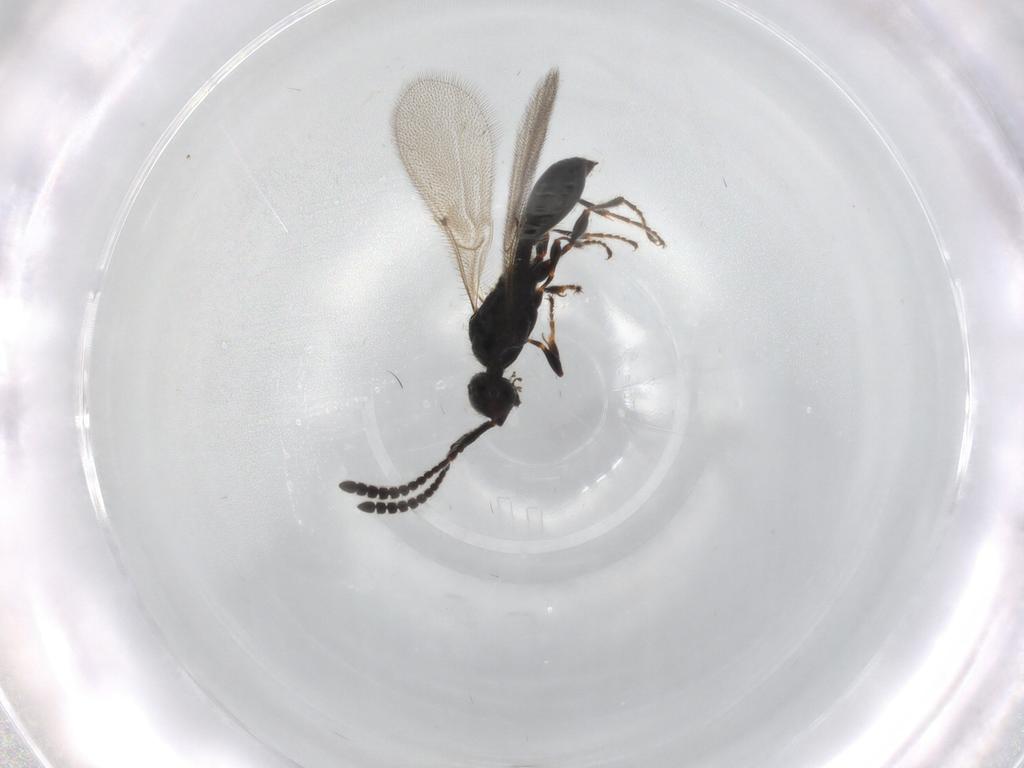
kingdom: Animalia
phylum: Arthropoda
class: Insecta
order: Hymenoptera
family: Diapriidae
